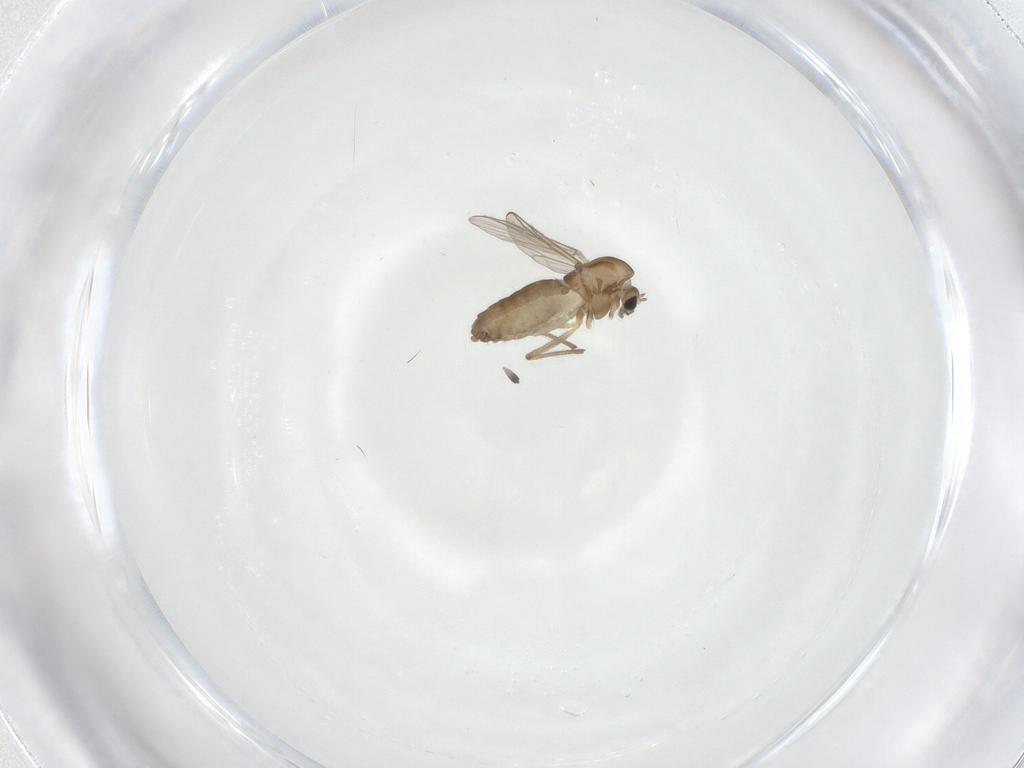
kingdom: Animalia
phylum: Arthropoda
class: Insecta
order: Diptera
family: Chironomidae
